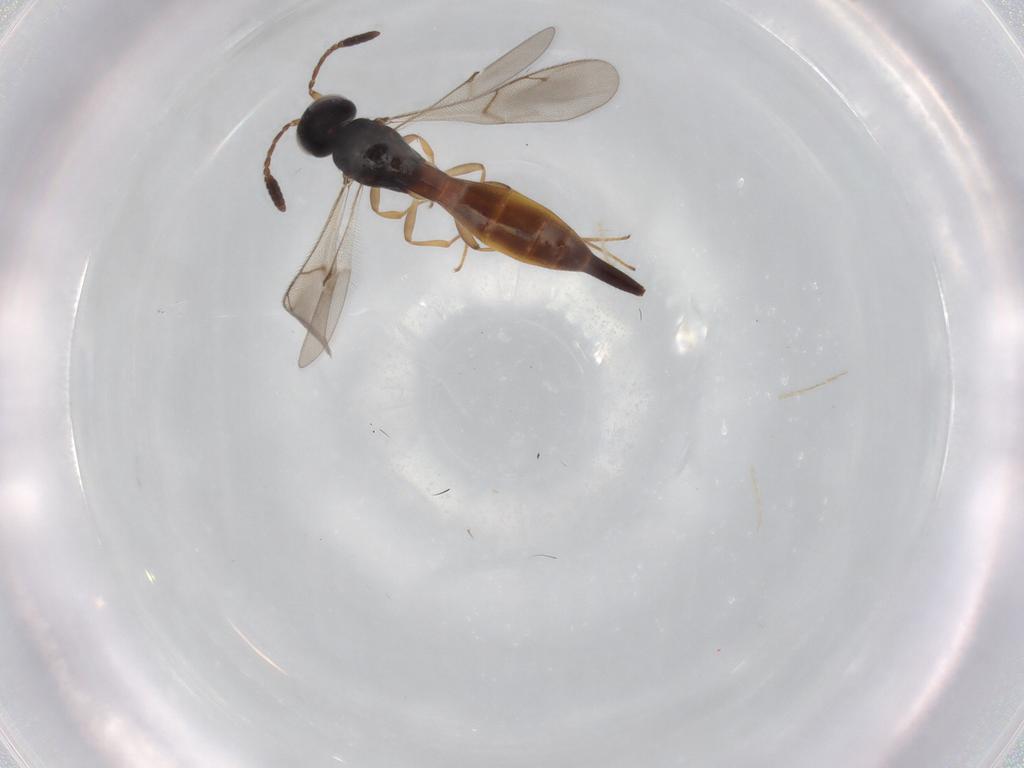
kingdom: Animalia
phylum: Arthropoda
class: Insecta
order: Hymenoptera
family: Scelionidae
